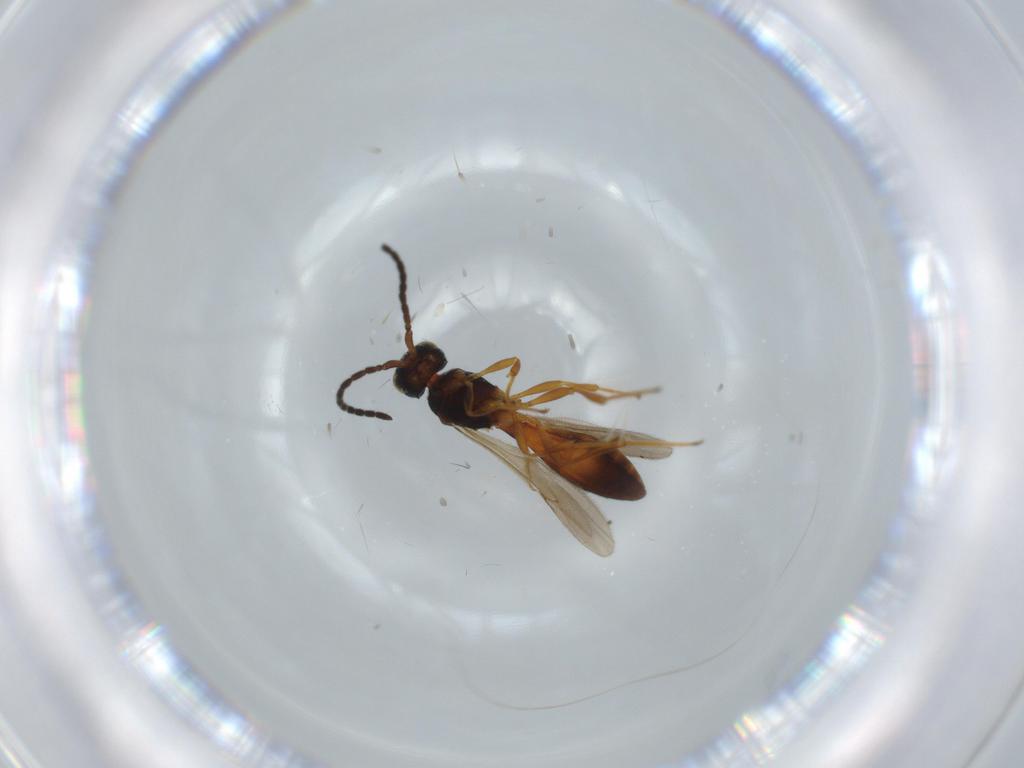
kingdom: Animalia
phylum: Arthropoda
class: Insecta
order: Hymenoptera
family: Scelionidae
